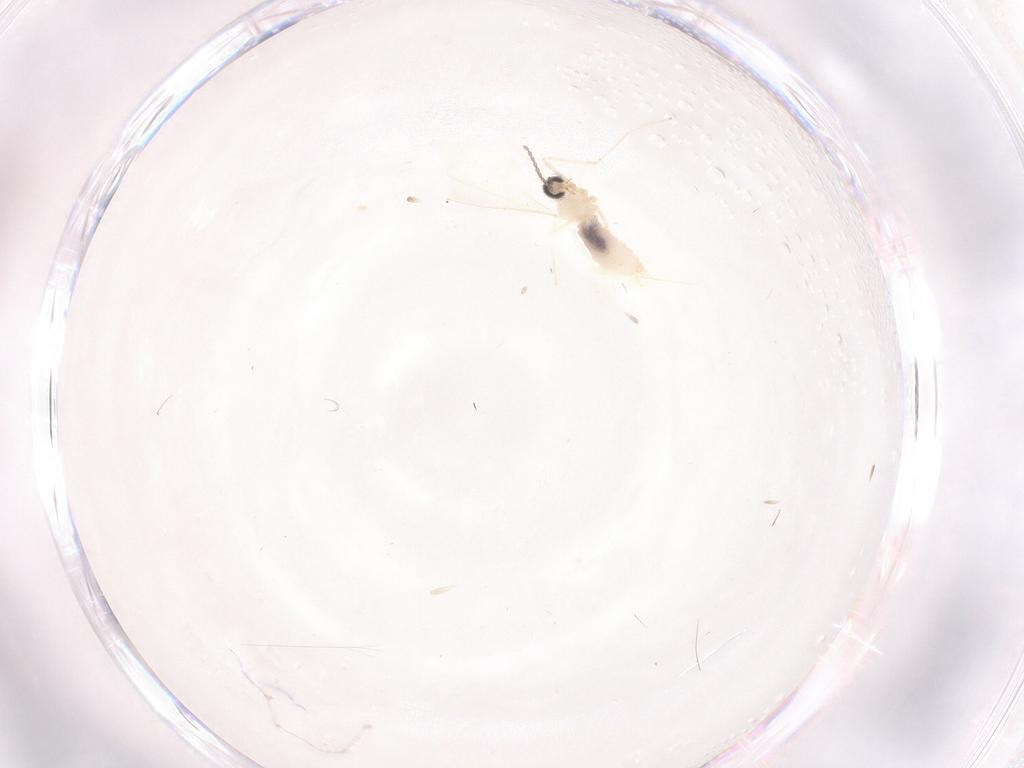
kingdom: Animalia
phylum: Arthropoda
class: Insecta
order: Diptera
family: Cecidomyiidae
